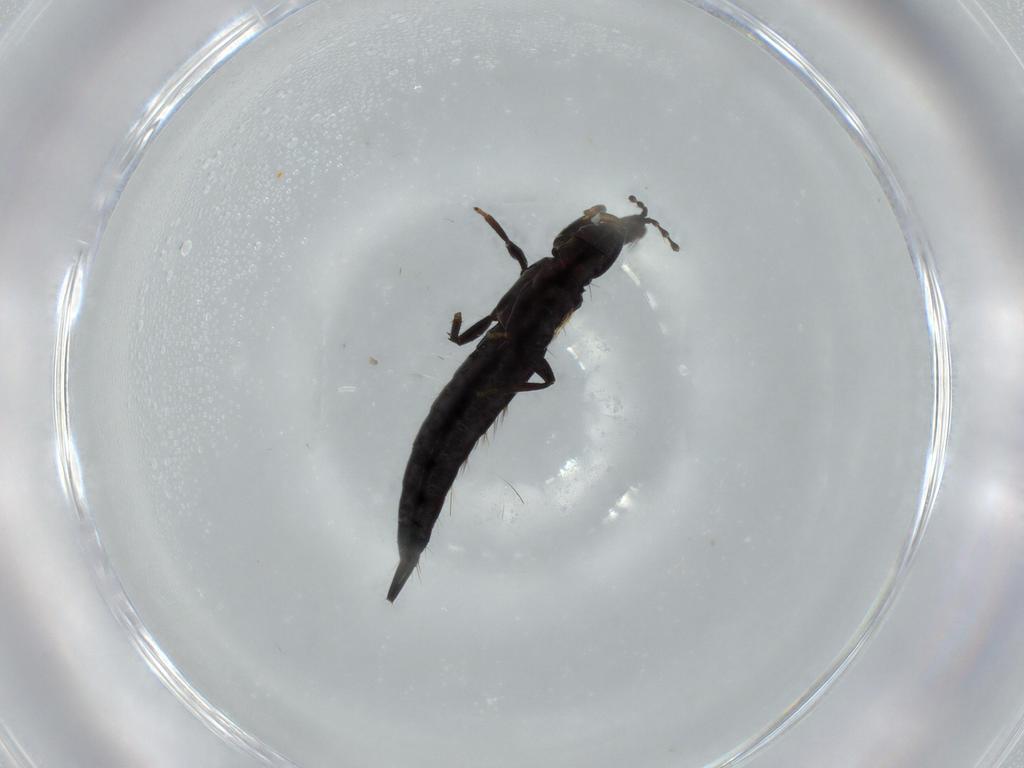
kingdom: Animalia
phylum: Arthropoda
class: Insecta
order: Thysanoptera
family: Phlaeothripidae
